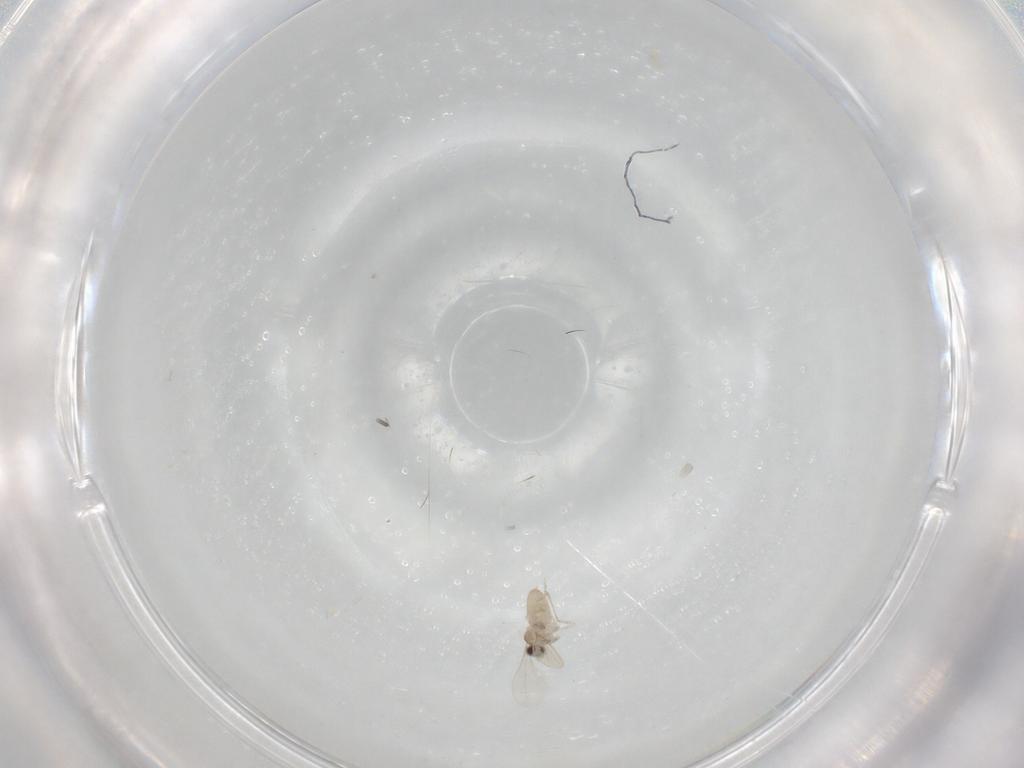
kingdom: Animalia
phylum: Arthropoda
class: Insecta
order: Diptera
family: Cecidomyiidae
